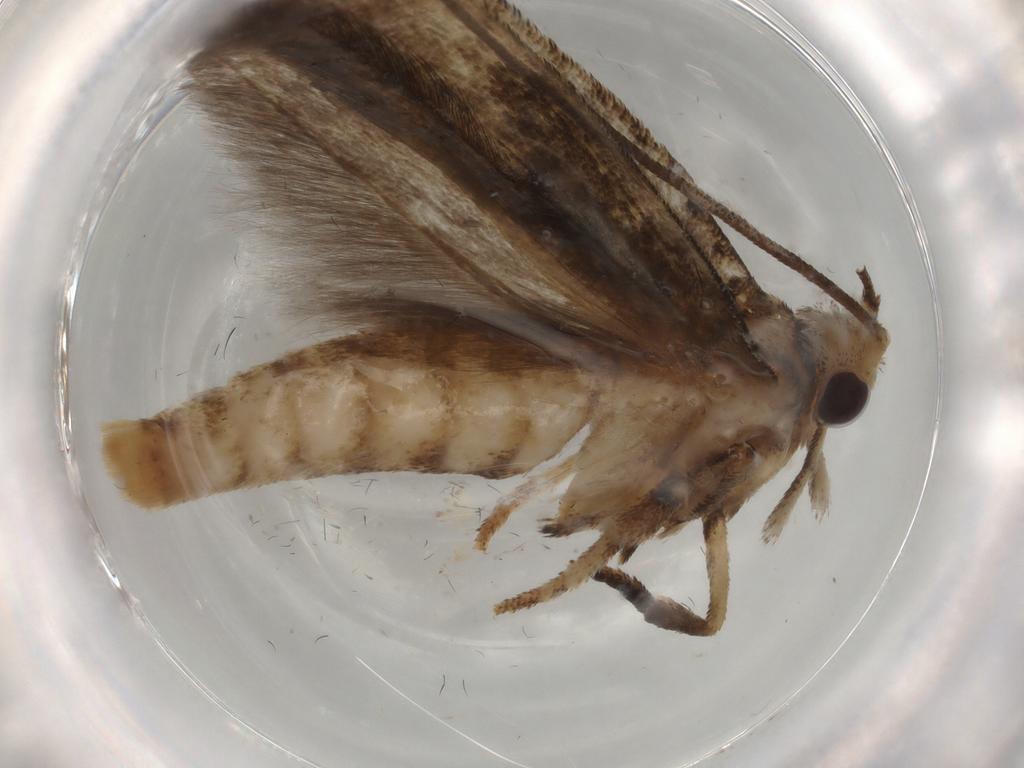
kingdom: Animalia
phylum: Arthropoda
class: Insecta
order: Lepidoptera
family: Yponomeutidae
